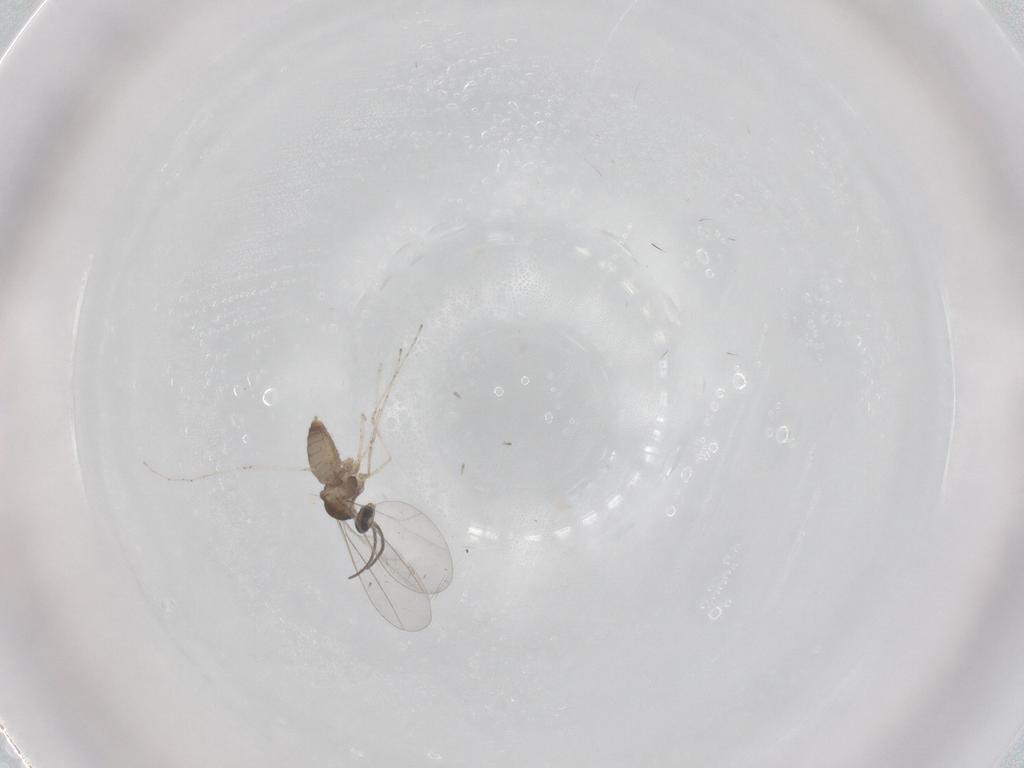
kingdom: Animalia
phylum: Arthropoda
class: Insecta
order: Diptera
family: Cecidomyiidae
